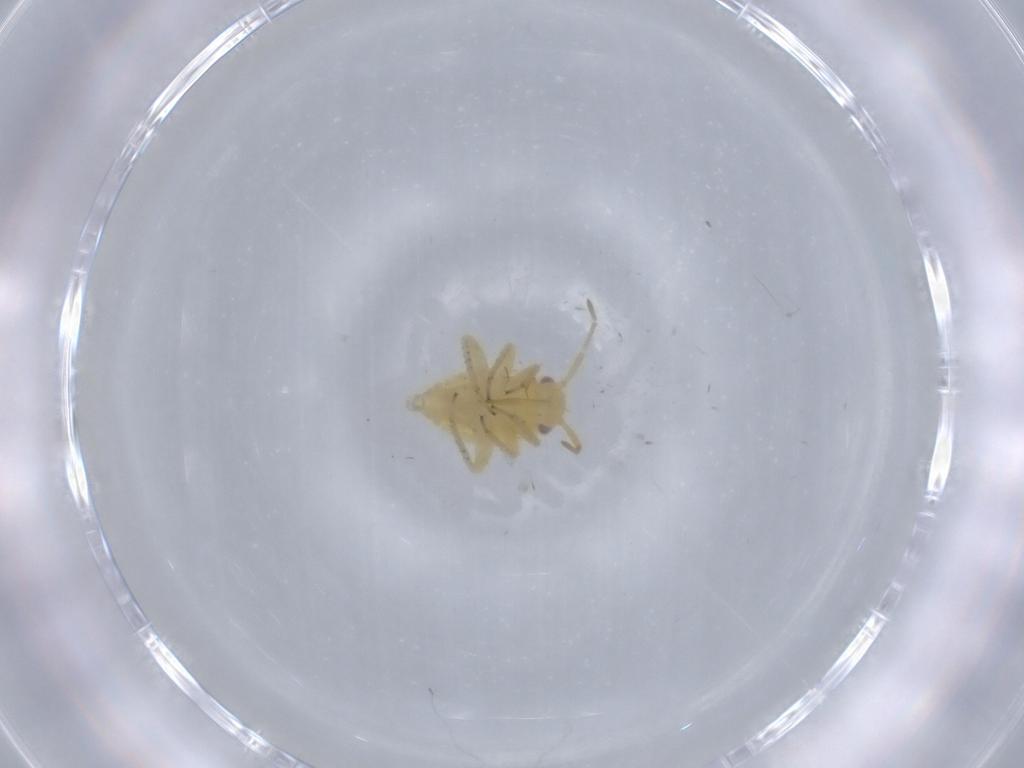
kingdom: Animalia
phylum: Arthropoda
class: Insecta
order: Hemiptera
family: Miridae
